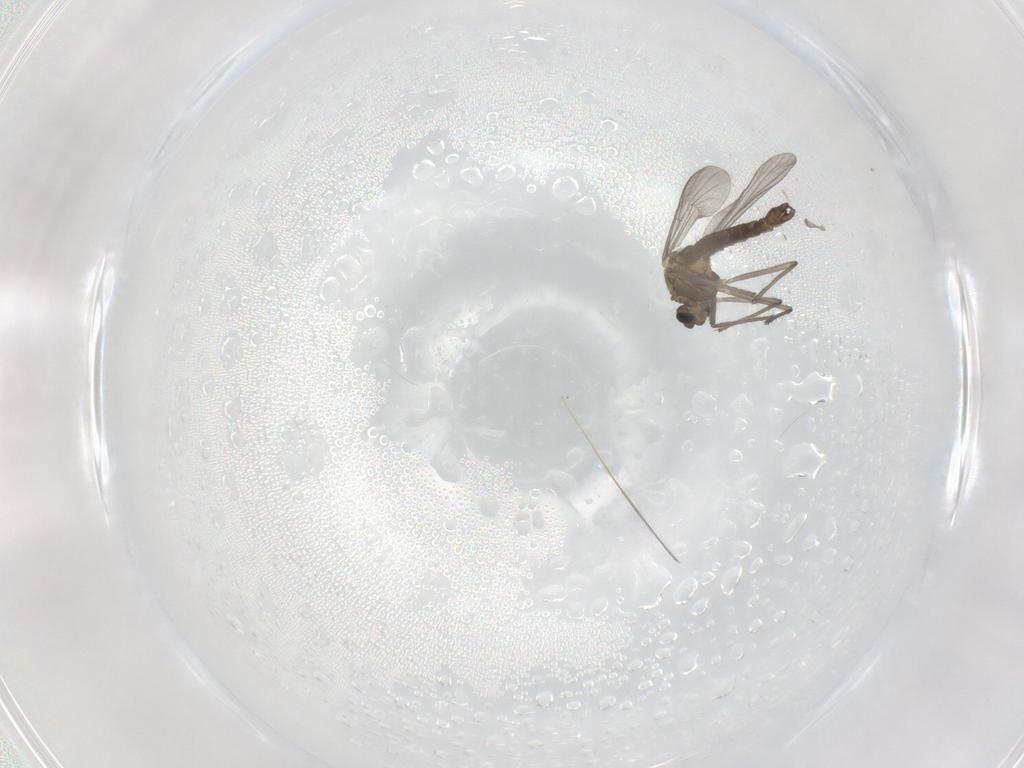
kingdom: Animalia
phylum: Arthropoda
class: Insecta
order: Diptera
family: Chironomidae
